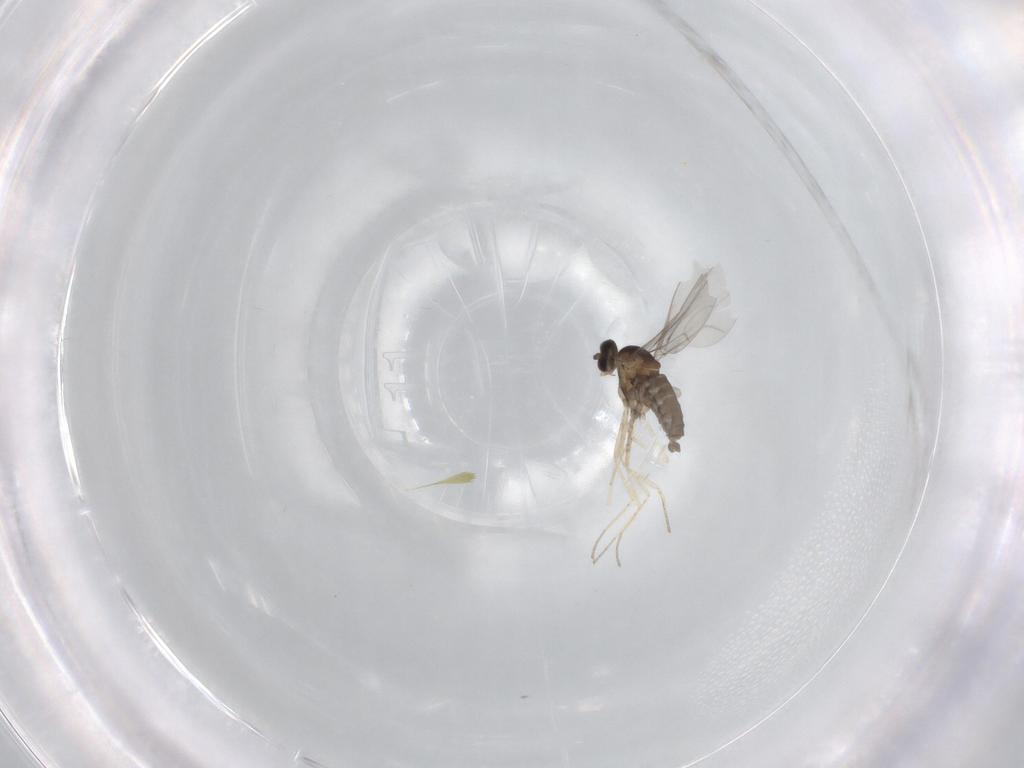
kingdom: Animalia
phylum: Arthropoda
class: Insecta
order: Diptera
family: Cecidomyiidae
